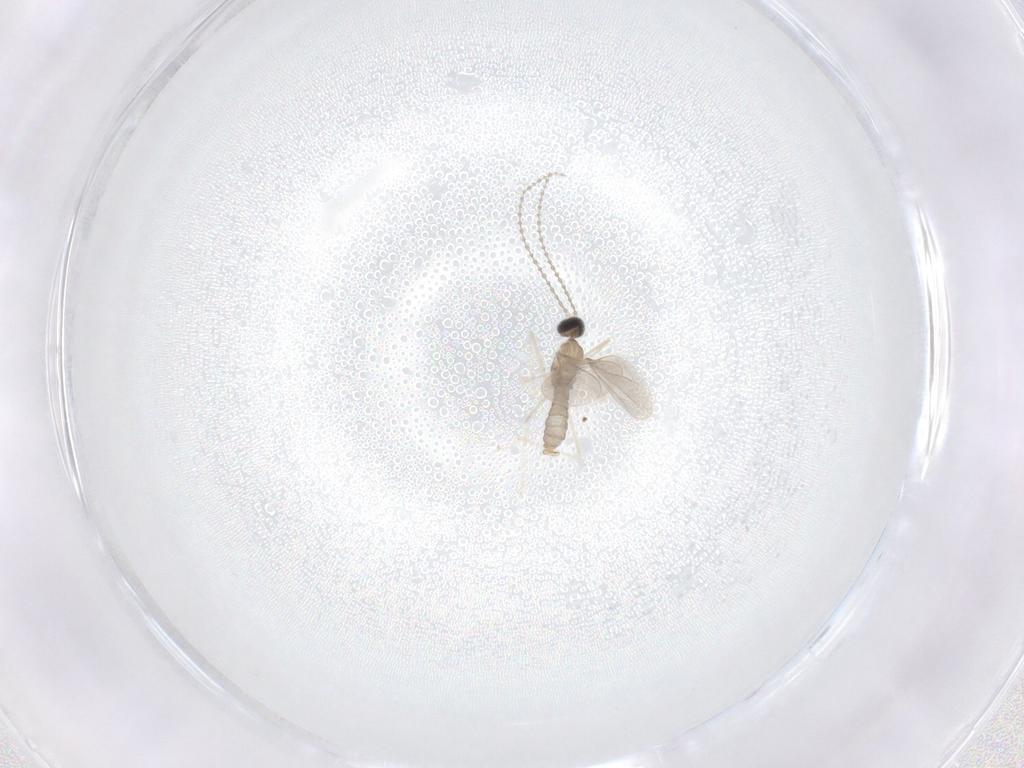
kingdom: Animalia
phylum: Arthropoda
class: Insecta
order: Diptera
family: Cecidomyiidae
